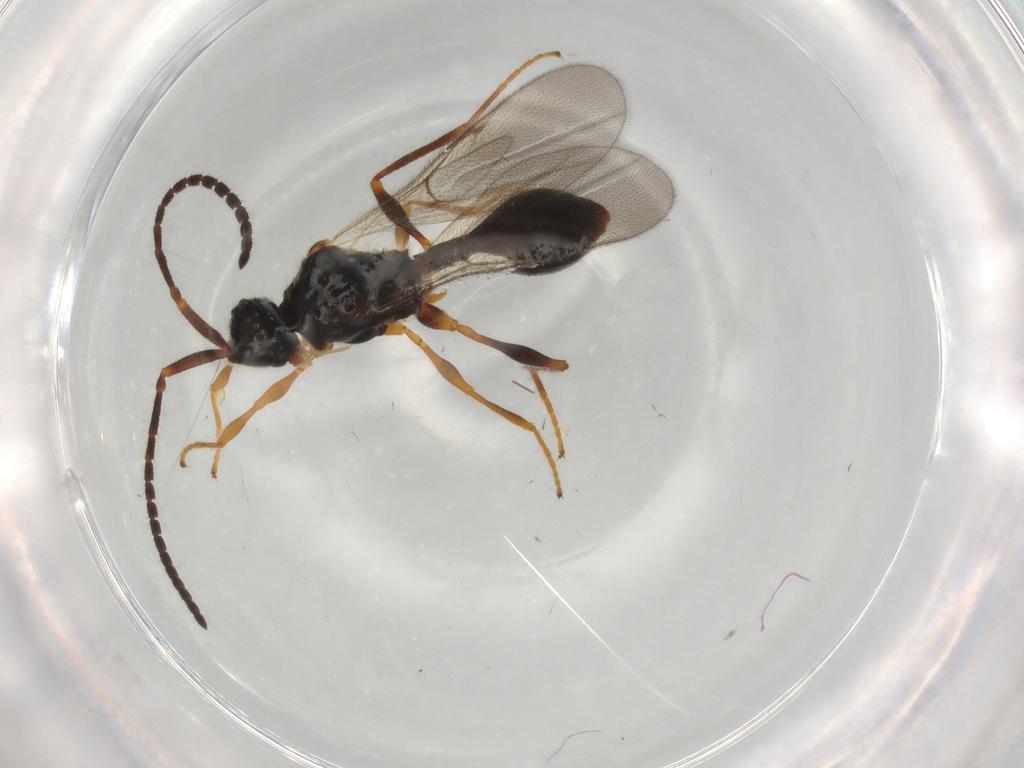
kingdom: Animalia
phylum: Arthropoda
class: Insecta
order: Hymenoptera
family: Diapriidae
